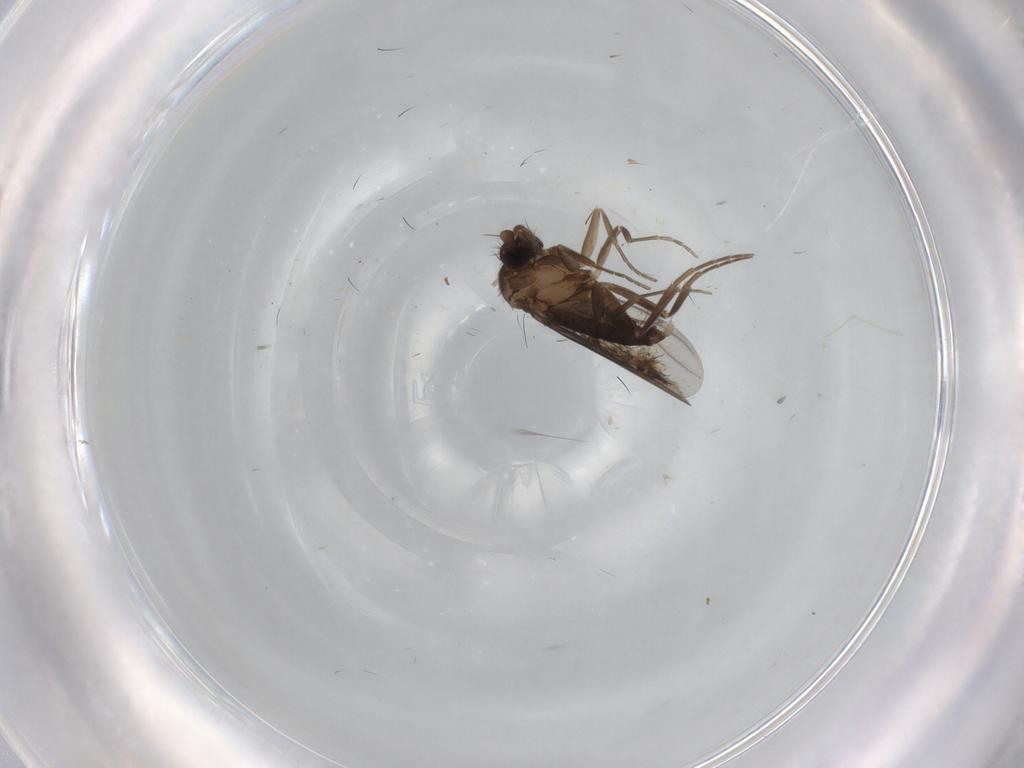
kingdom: Animalia
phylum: Arthropoda
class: Insecta
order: Diptera
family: Sphaeroceridae
